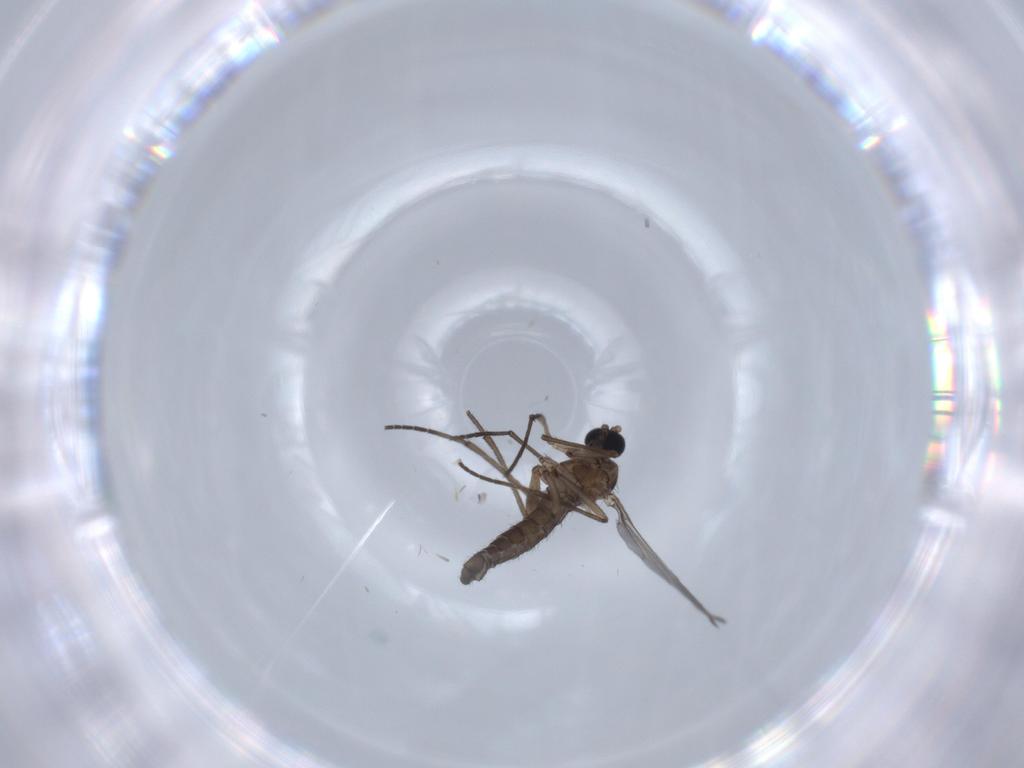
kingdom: Animalia
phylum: Arthropoda
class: Insecta
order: Diptera
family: Sciaridae
